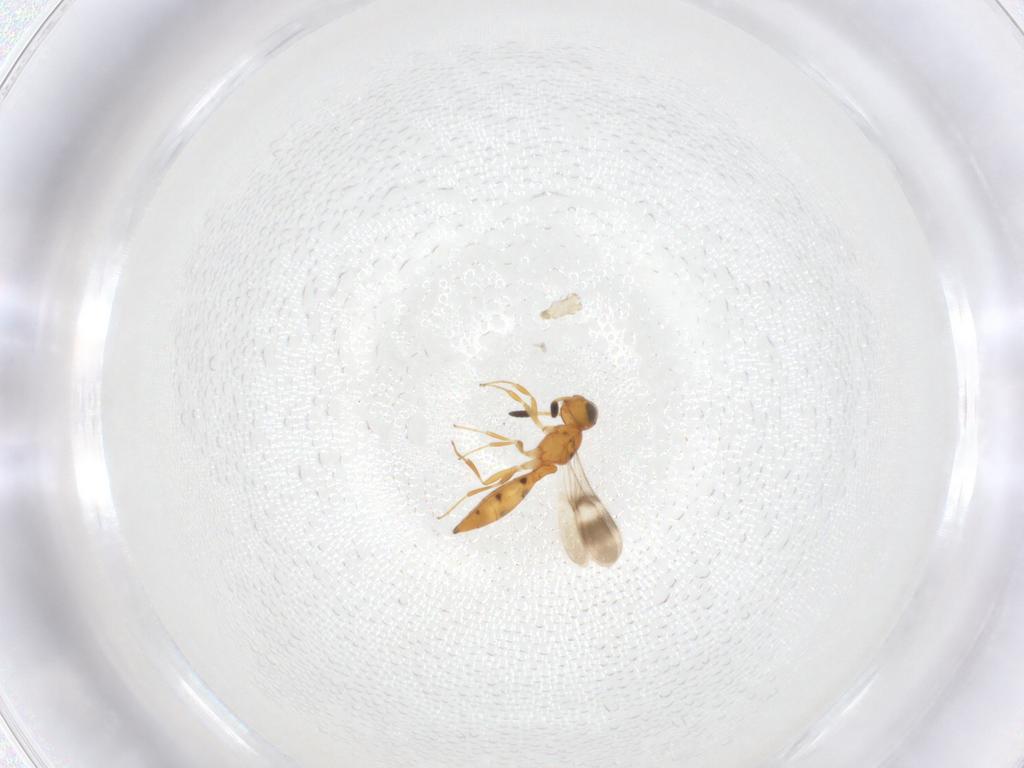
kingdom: Animalia
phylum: Arthropoda
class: Insecta
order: Hymenoptera
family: Scelionidae
